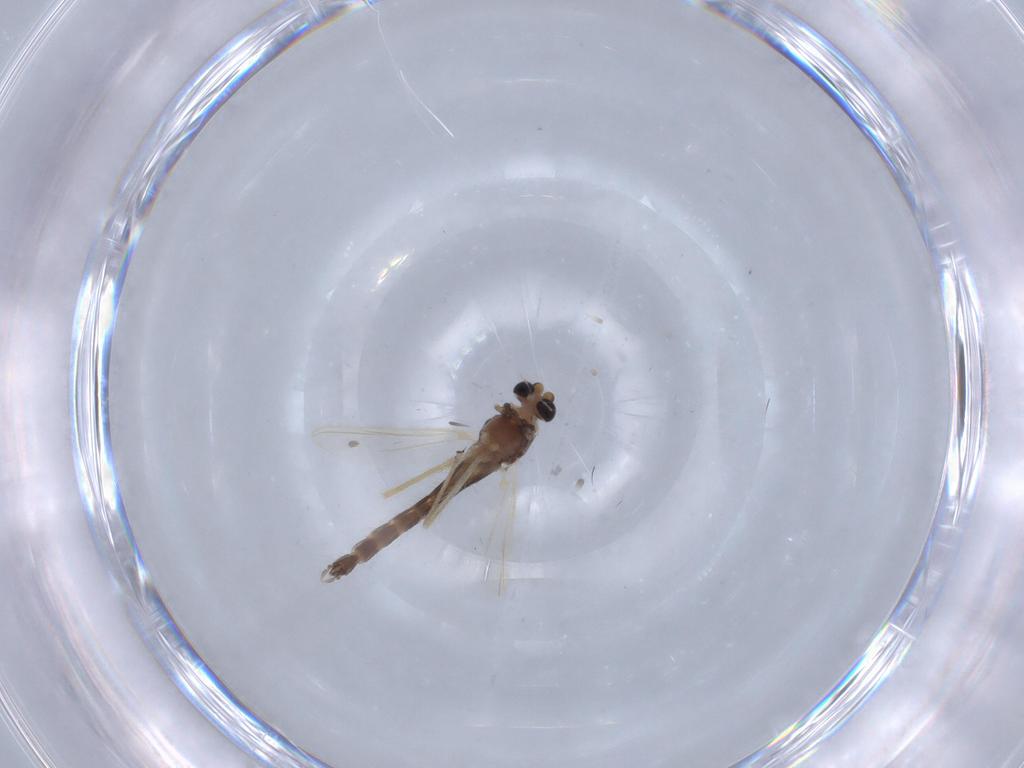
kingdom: Animalia
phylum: Arthropoda
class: Insecta
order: Diptera
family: Chironomidae
